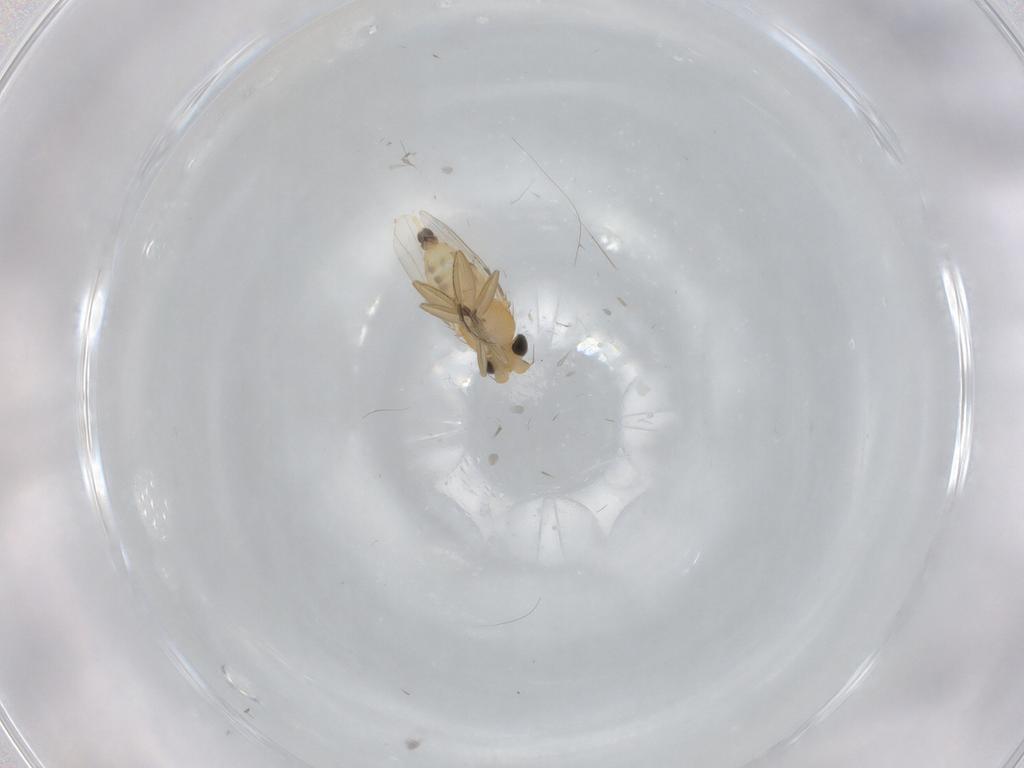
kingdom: Animalia
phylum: Arthropoda
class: Insecta
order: Diptera
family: Phoridae
